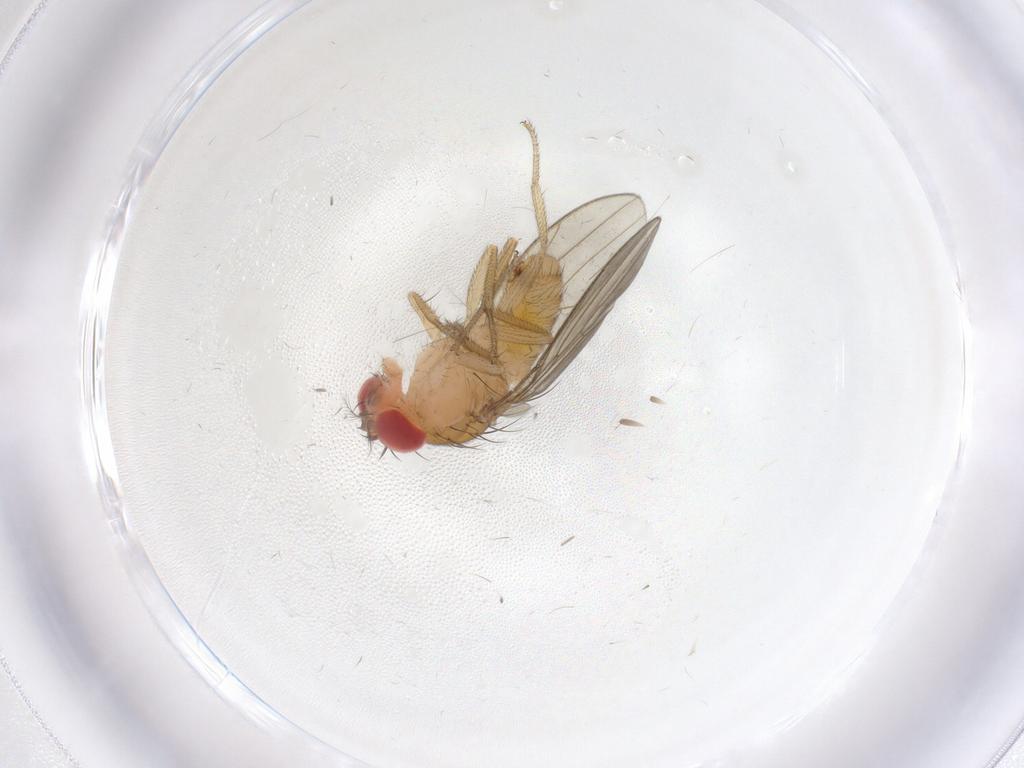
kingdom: Animalia
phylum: Arthropoda
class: Insecta
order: Diptera
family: Drosophilidae
